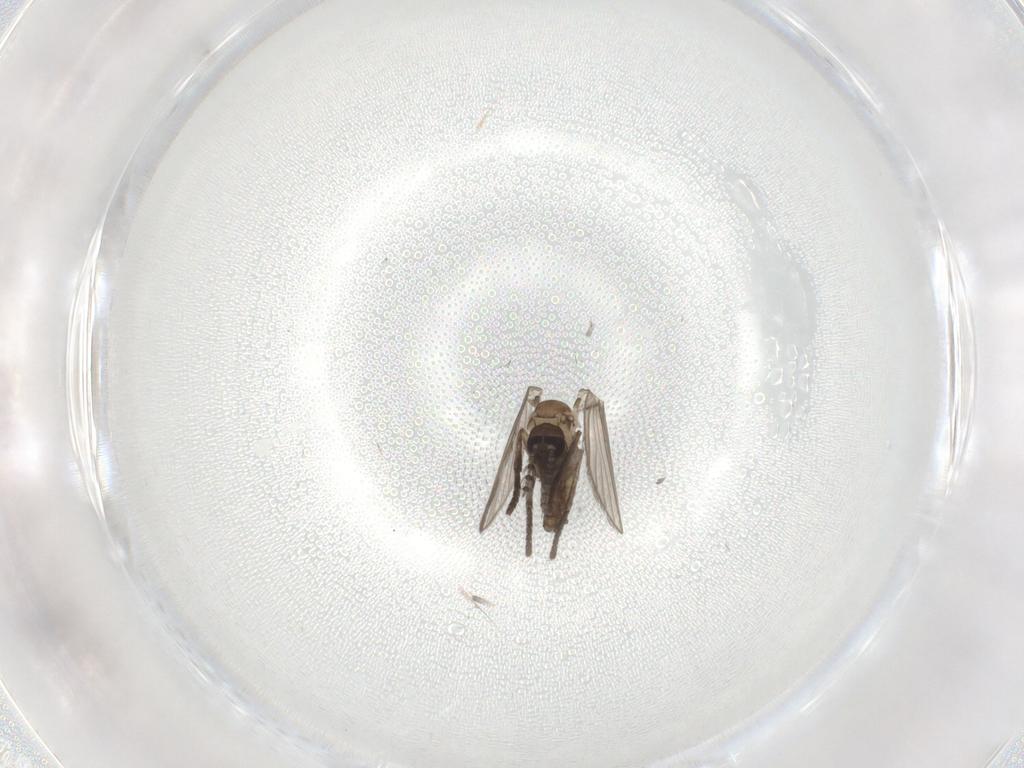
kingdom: Animalia
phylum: Arthropoda
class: Insecta
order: Diptera
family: Psychodidae
